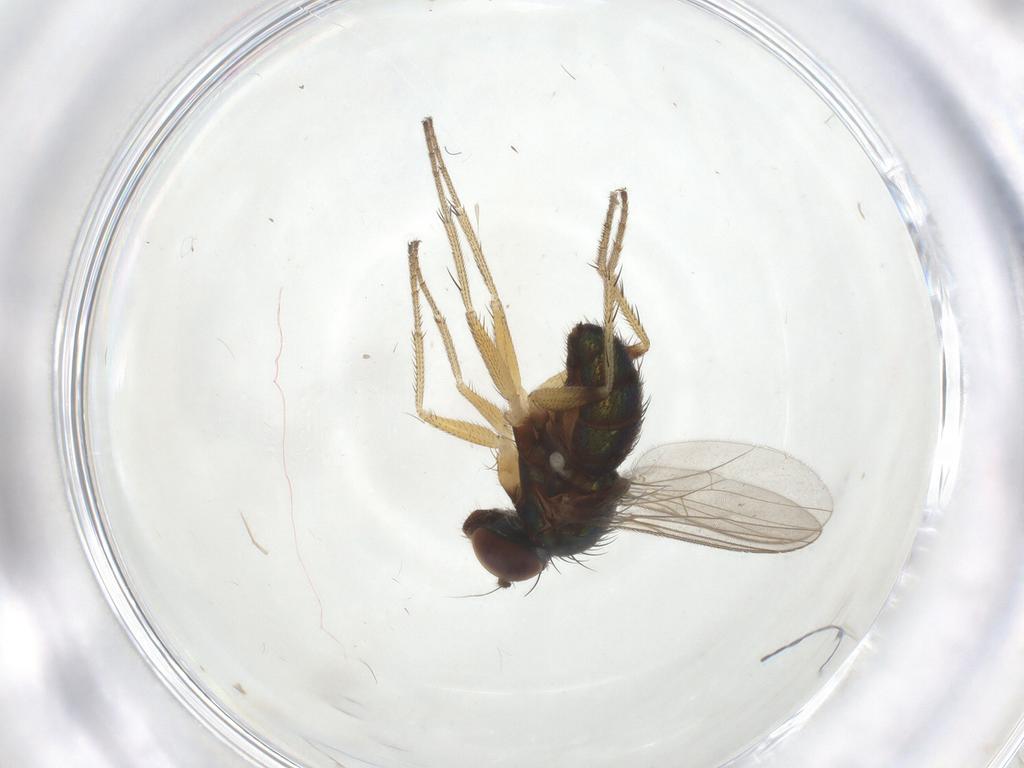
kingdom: Animalia
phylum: Arthropoda
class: Insecta
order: Diptera
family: Dolichopodidae
